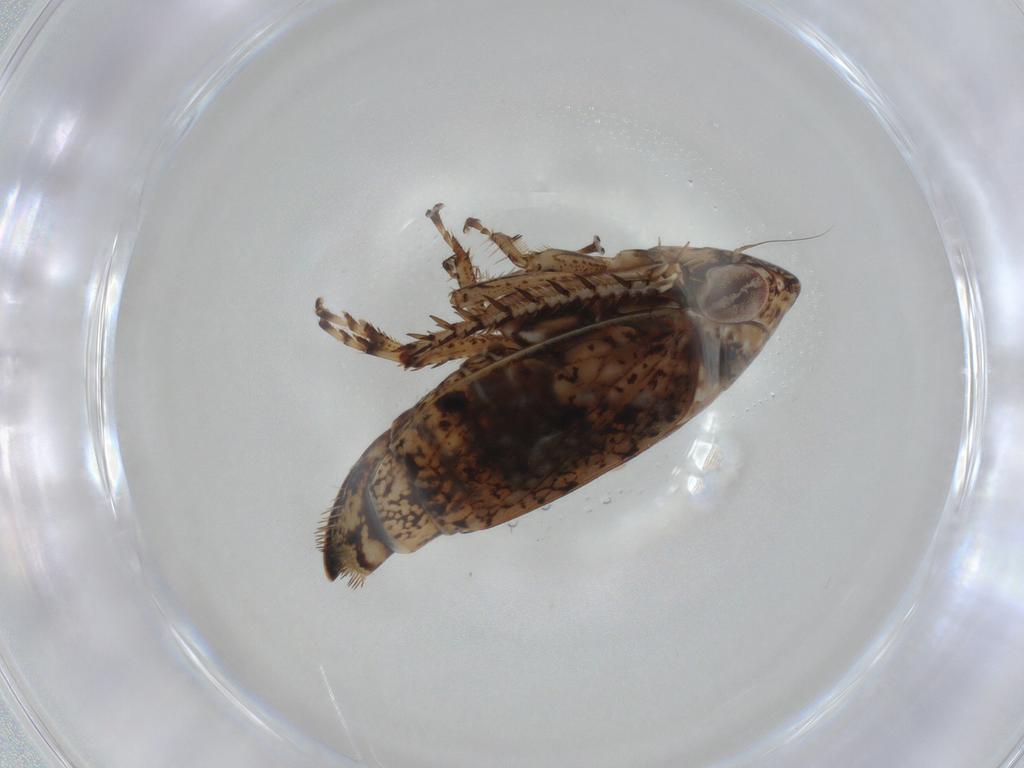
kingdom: Animalia
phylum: Arthropoda
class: Insecta
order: Hemiptera
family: Cicadellidae
